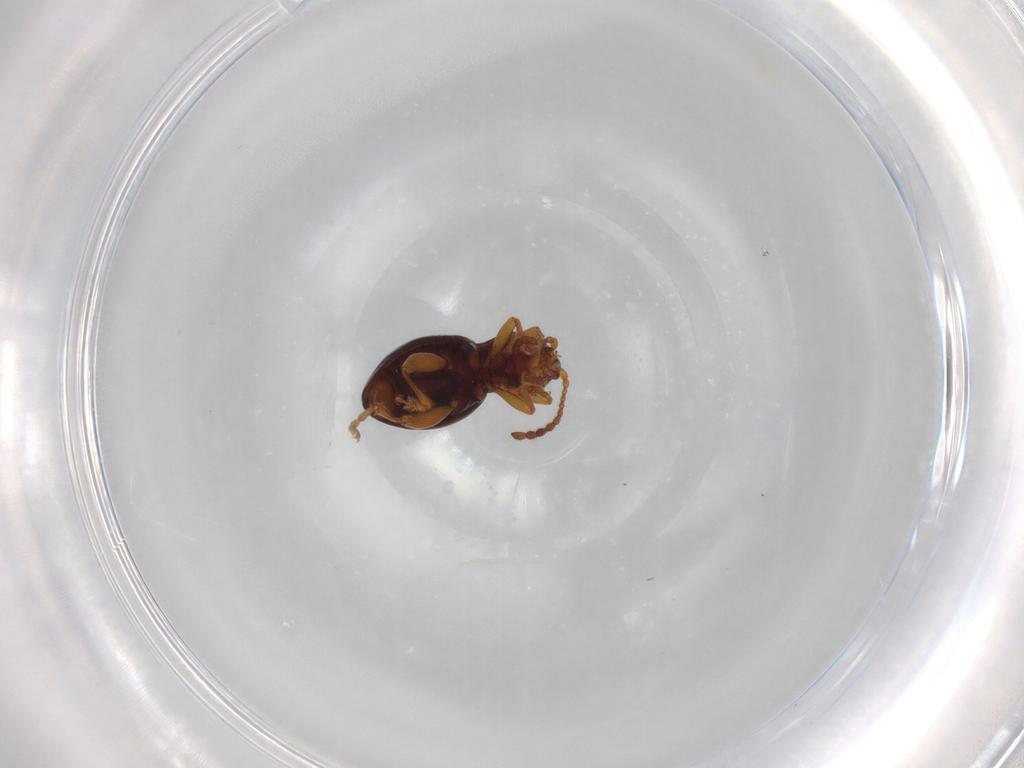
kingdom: Animalia
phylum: Arthropoda
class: Insecta
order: Coleoptera
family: Chrysomelidae
